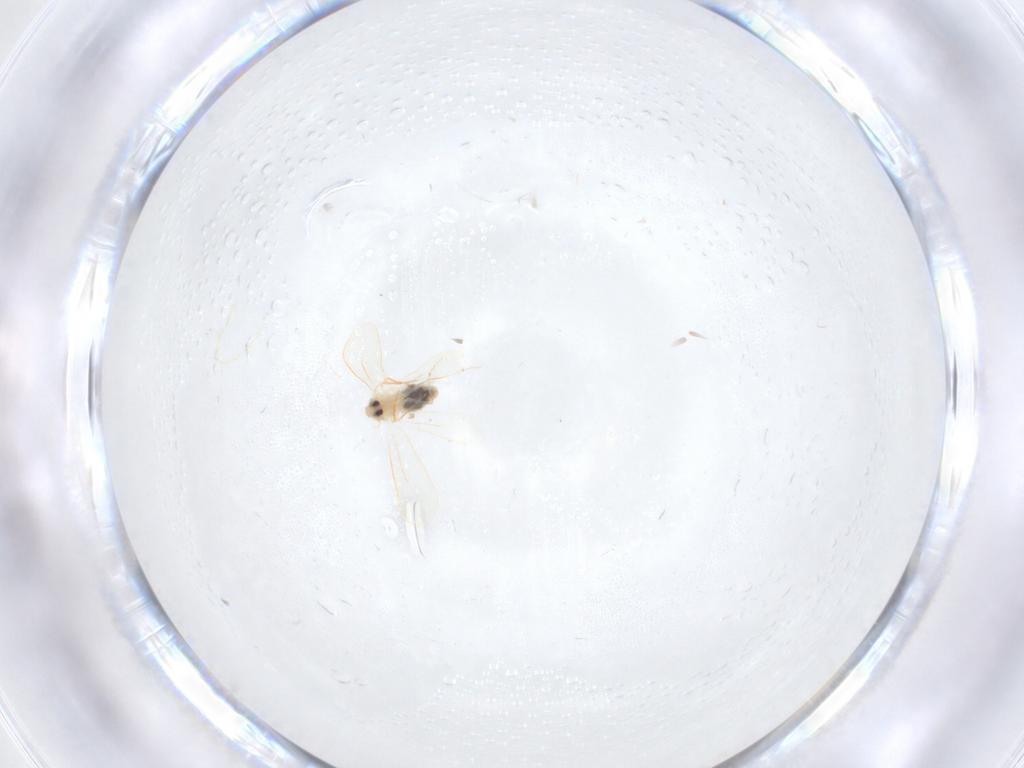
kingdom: Animalia
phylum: Arthropoda
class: Insecta
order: Hemiptera
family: Aleyrodidae
